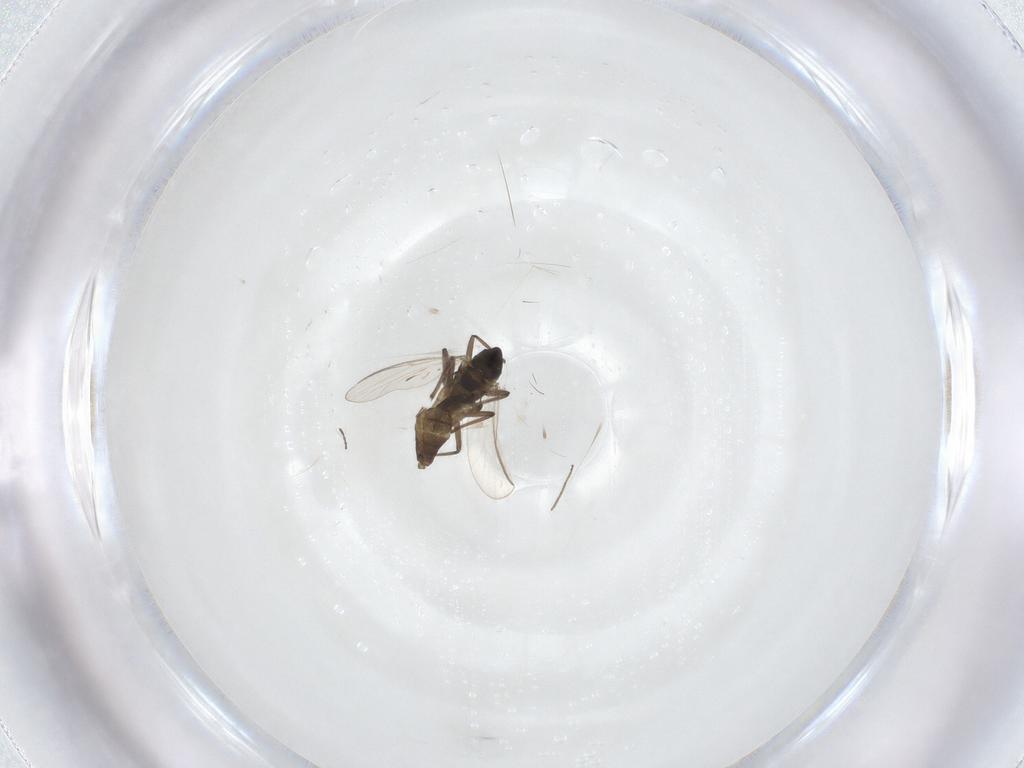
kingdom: Animalia
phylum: Arthropoda
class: Insecta
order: Diptera
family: Chironomidae
